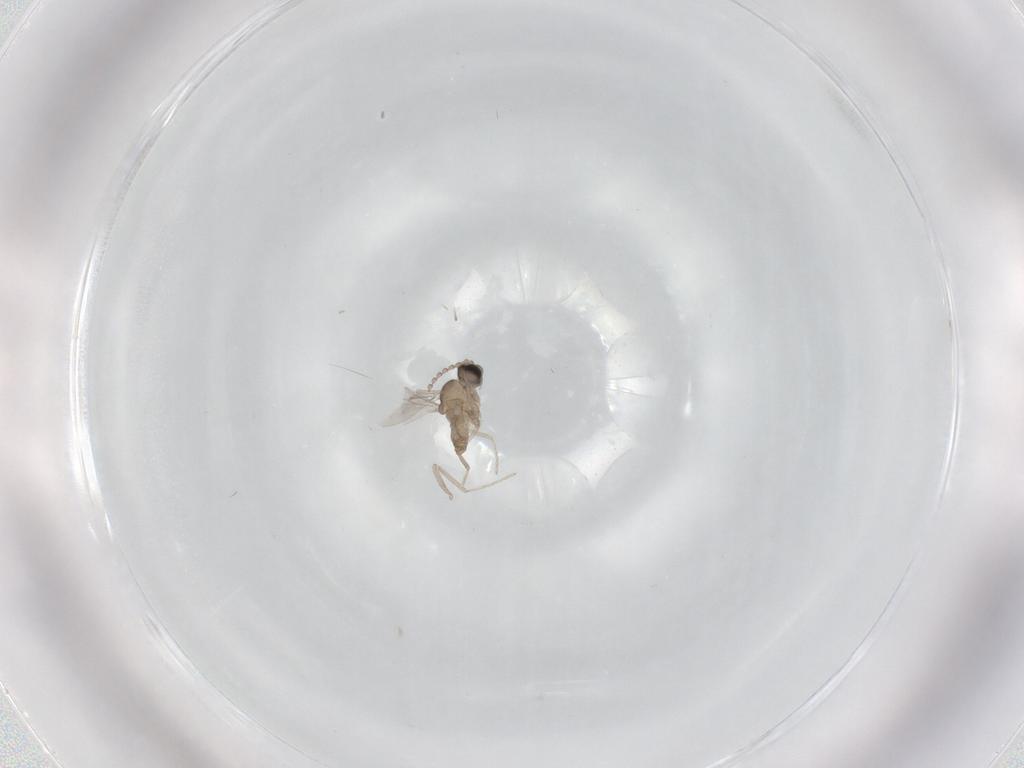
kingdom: Animalia
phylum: Arthropoda
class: Insecta
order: Diptera
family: Cecidomyiidae
